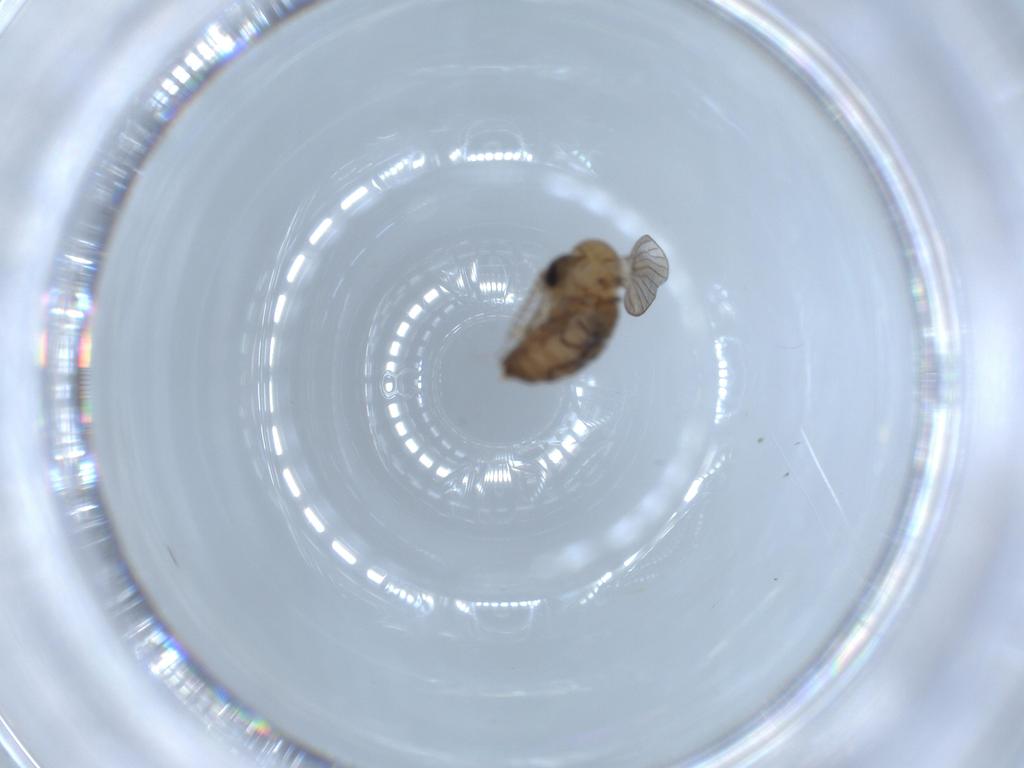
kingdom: Animalia
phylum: Arthropoda
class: Insecta
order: Diptera
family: Psychodidae
